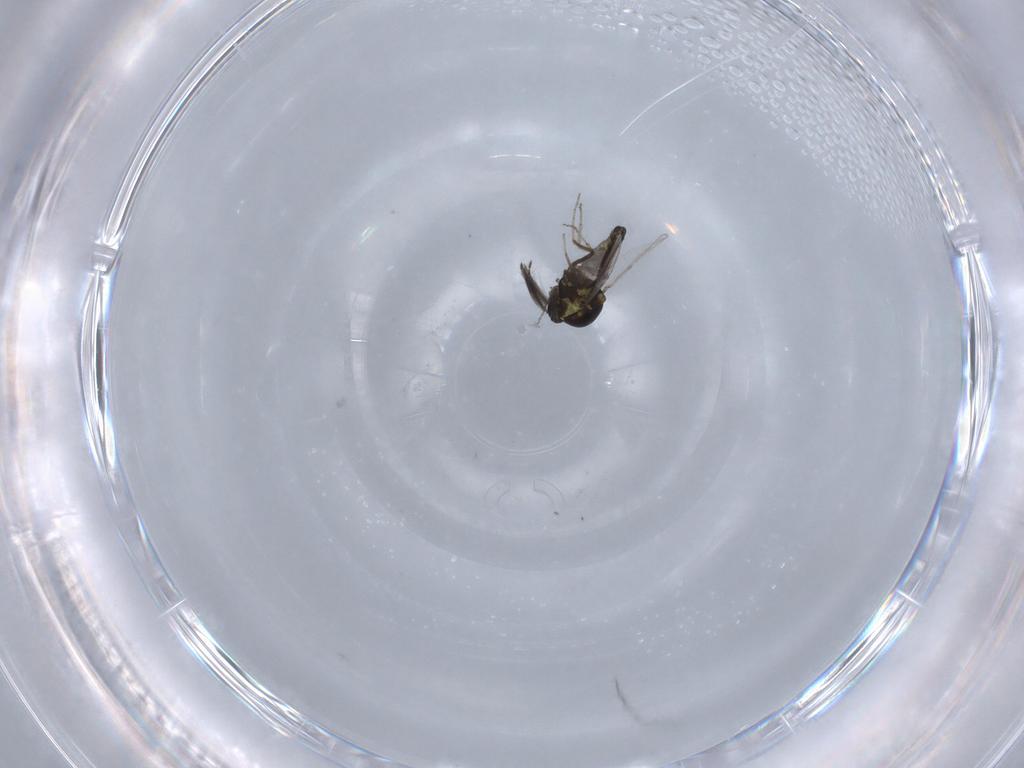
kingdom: Animalia
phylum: Arthropoda
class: Insecta
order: Diptera
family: Ceratopogonidae
